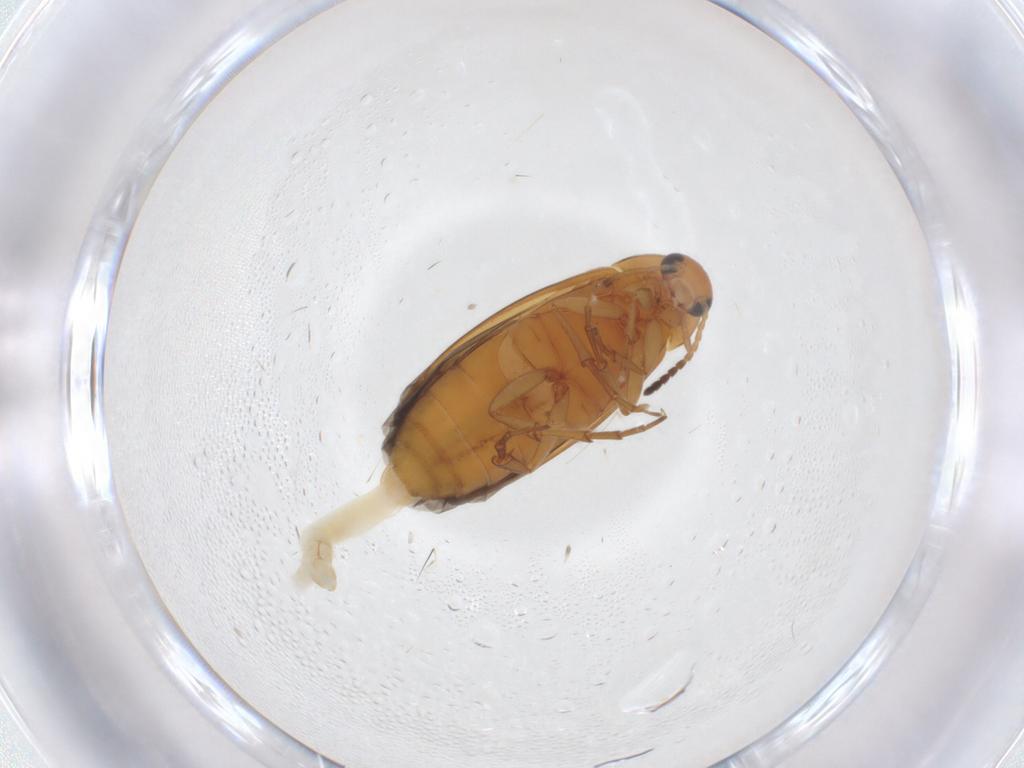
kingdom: Animalia
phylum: Arthropoda
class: Insecta
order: Coleoptera
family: Scraptiidae
